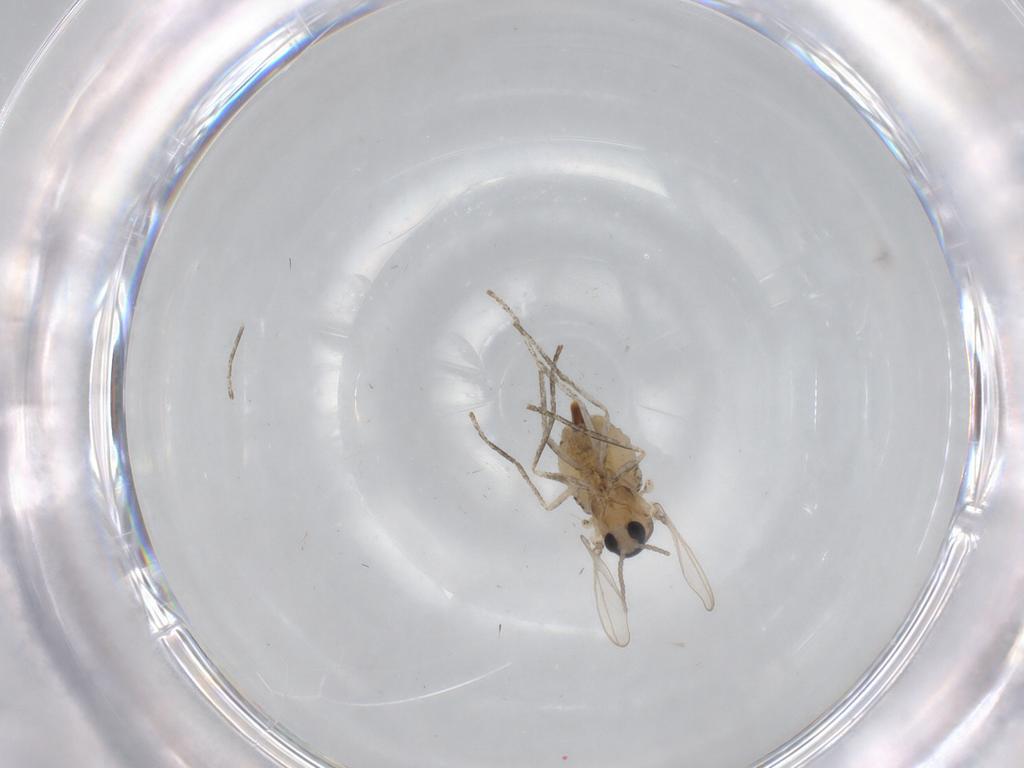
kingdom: Animalia
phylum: Arthropoda
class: Insecta
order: Diptera
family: Cecidomyiidae
